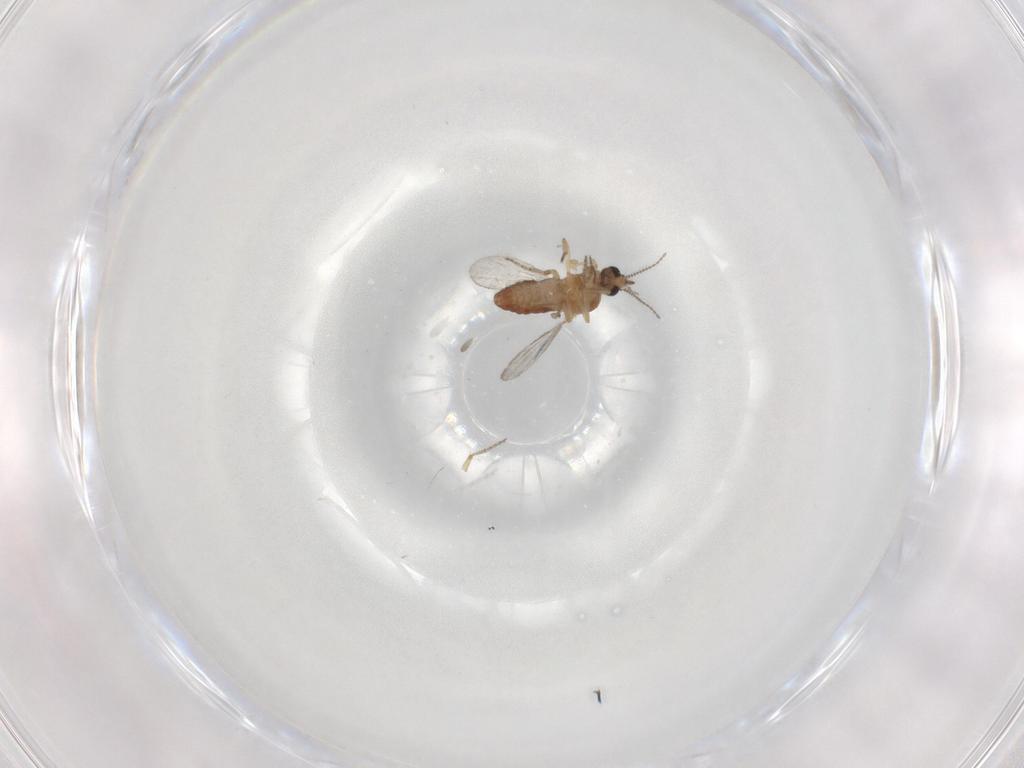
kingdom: Animalia
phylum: Arthropoda
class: Insecta
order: Diptera
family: Ceratopogonidae
